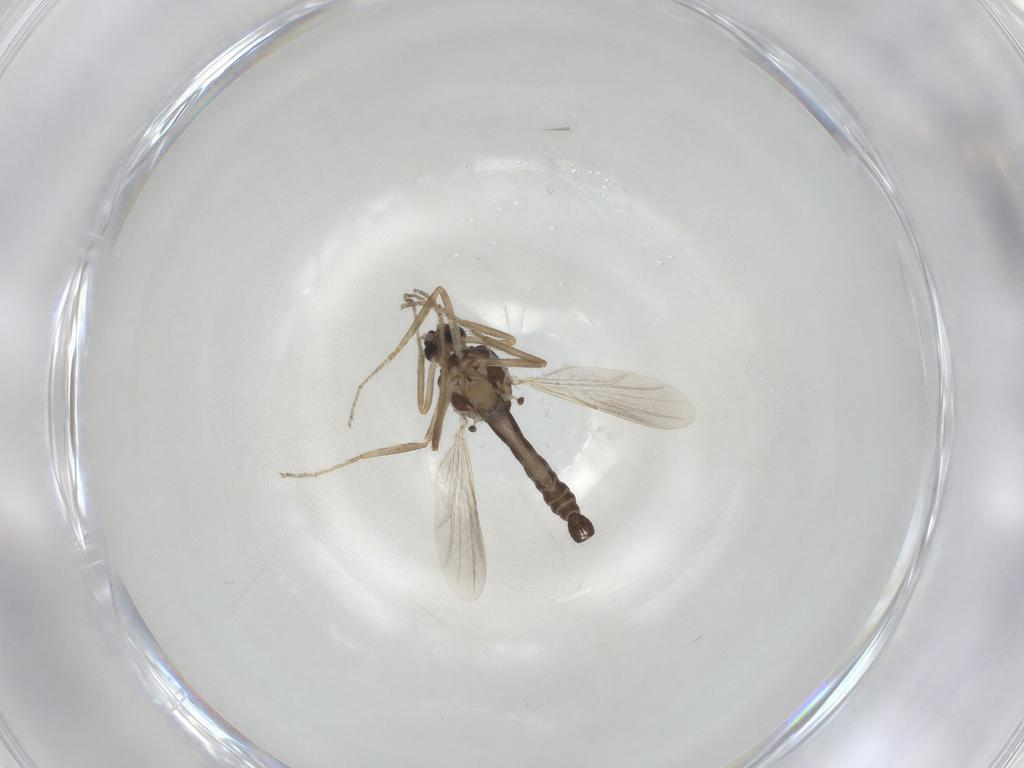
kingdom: Animalia
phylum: Arthropoda
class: Insecta
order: Diptera
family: Ceratopogonidae
